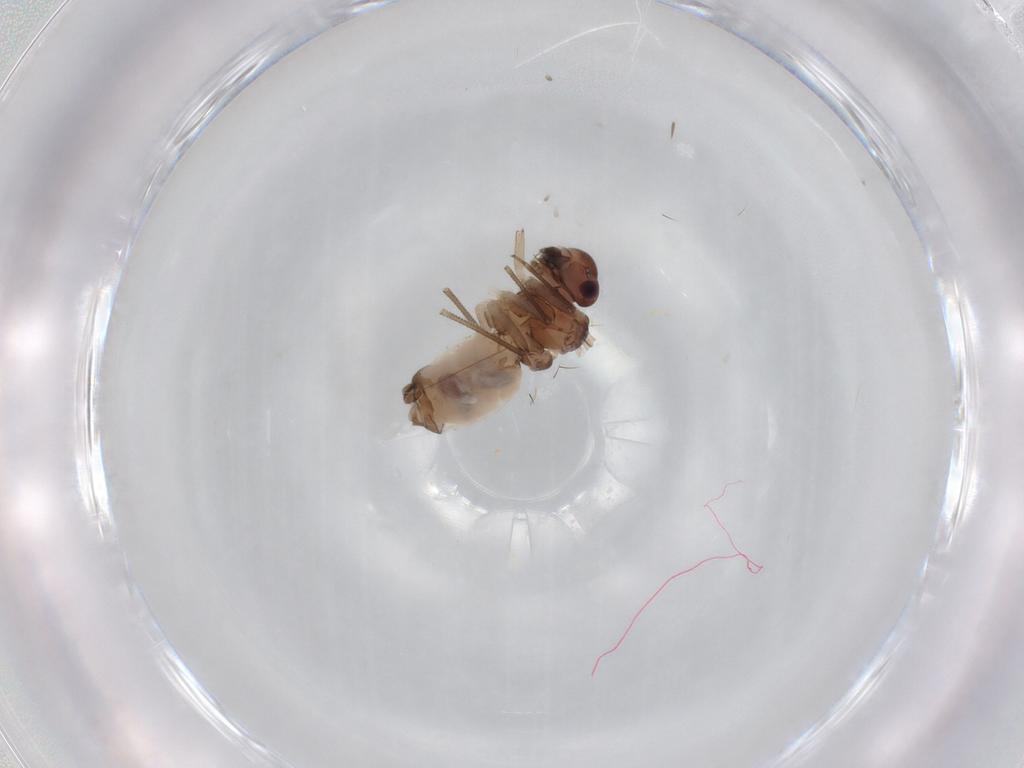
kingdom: Animalia
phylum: Arthropoda
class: Insecta
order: Psocodea
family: Peripsocidae
